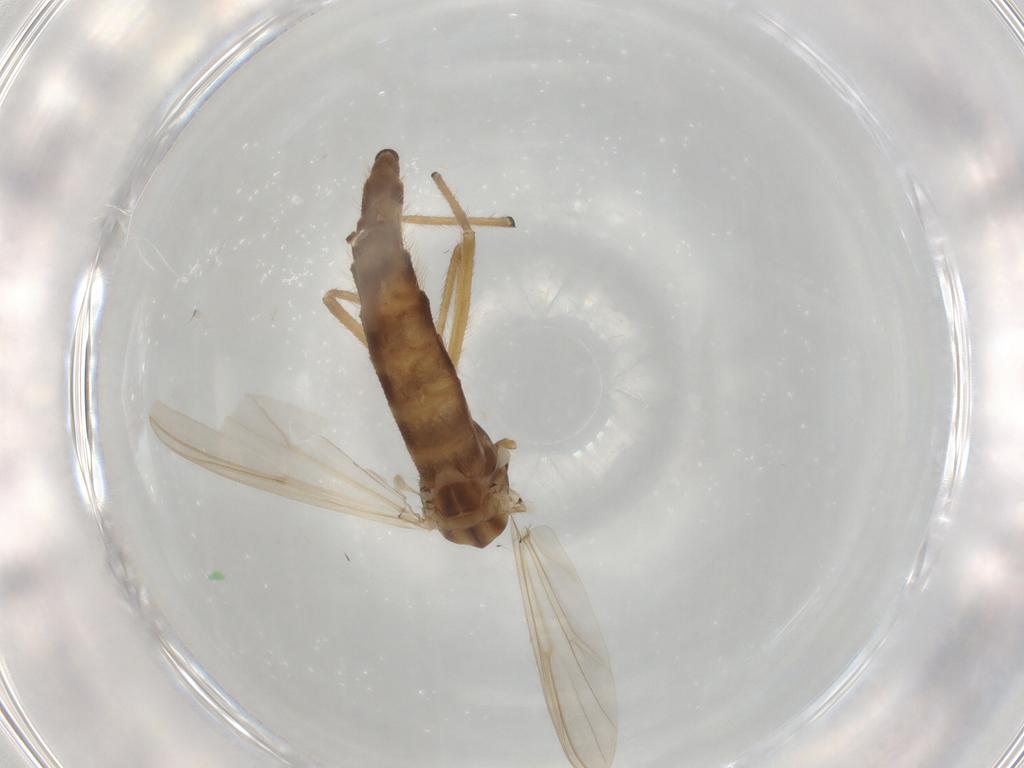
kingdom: Animalia
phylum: Arthropoda
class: Insecta
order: Diptera
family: Chironomidae
